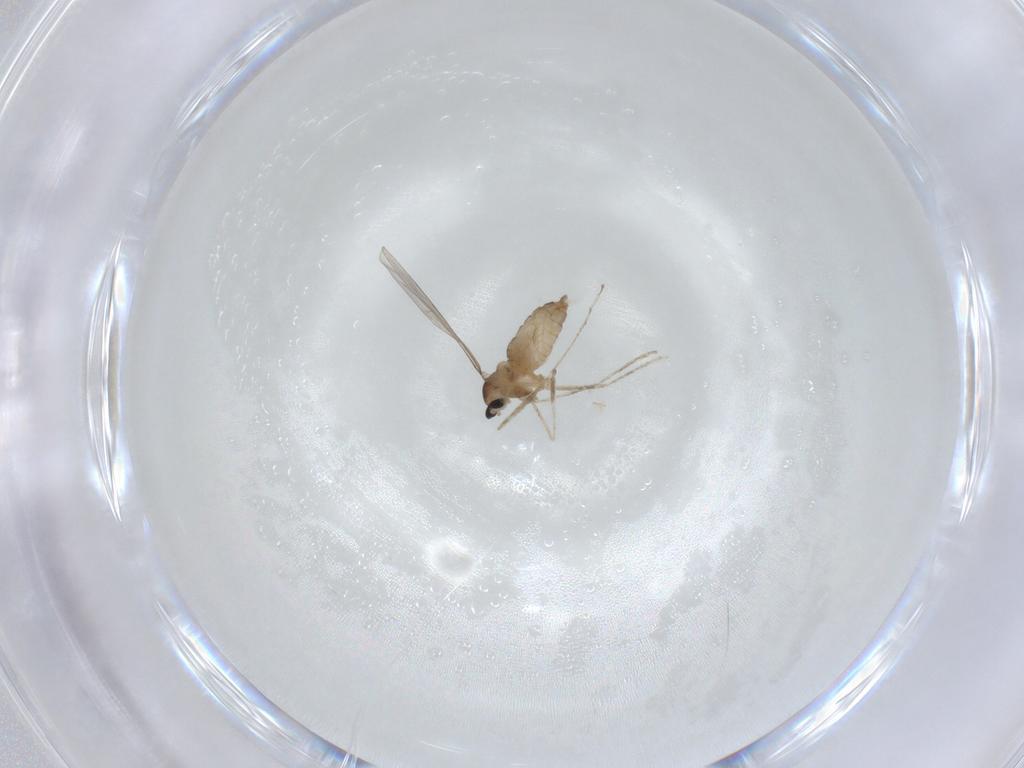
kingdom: Animalia
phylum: Arthropoda
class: Insecta
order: Diptera
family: Cecidomyiidae
